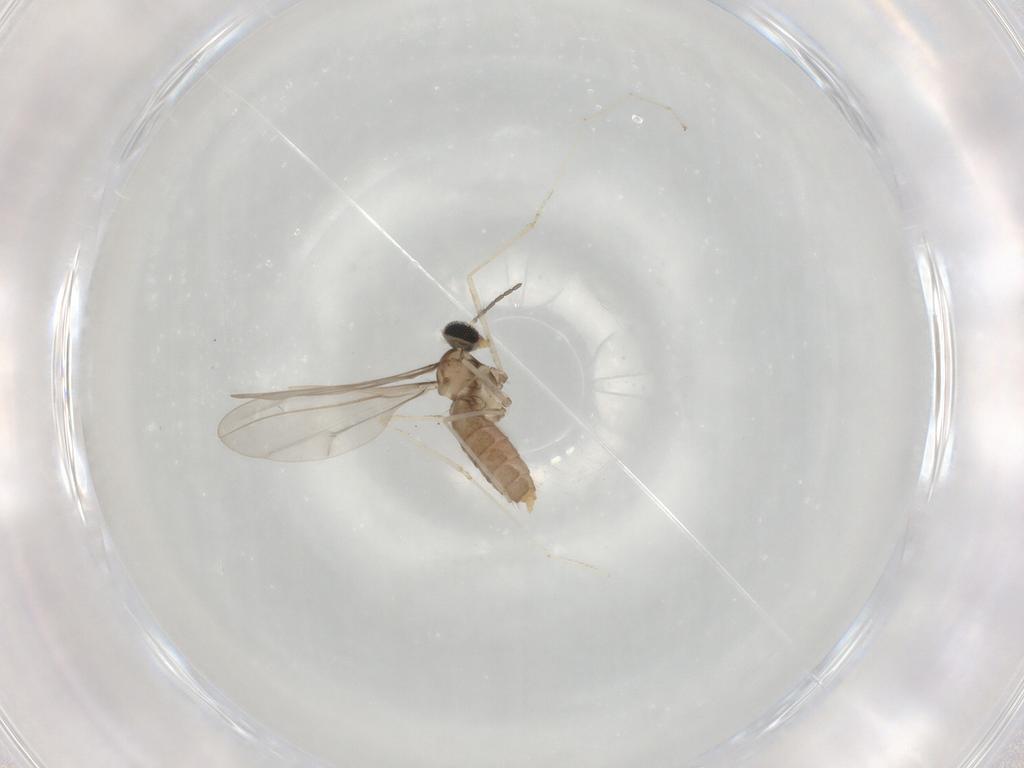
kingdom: Animalia
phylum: Arthropoda
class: Insecta
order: Diptera
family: Cecidomyiidae
